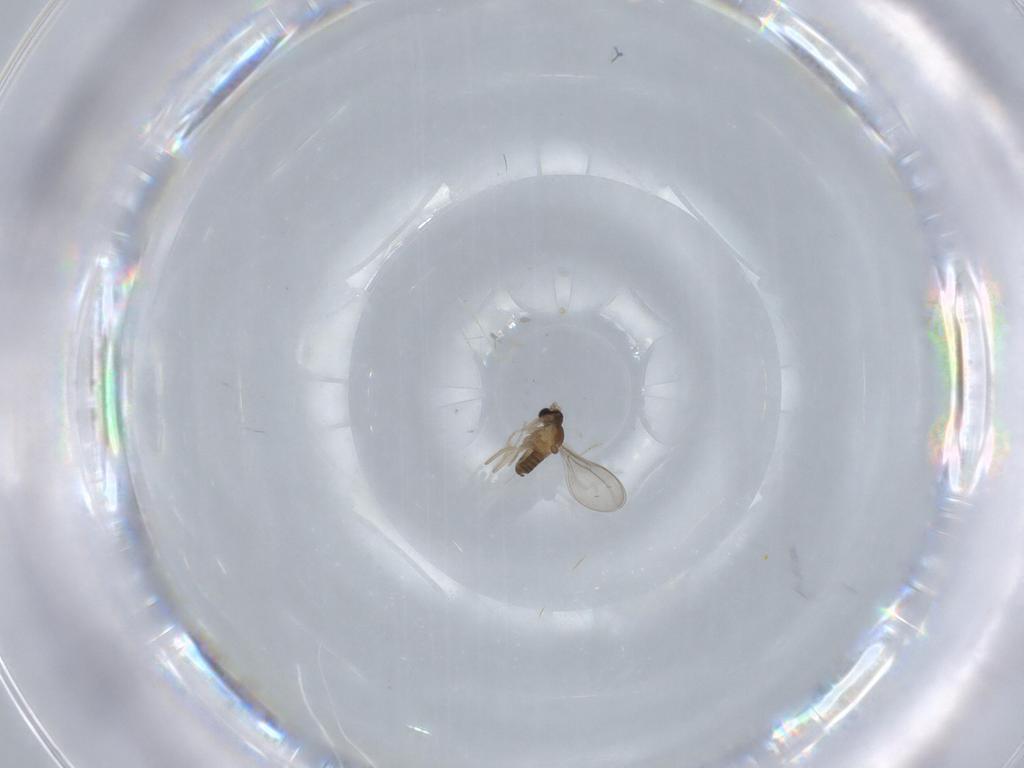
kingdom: Animalia
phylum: Arthropoda
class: Insecta
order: Diptera
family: Cecidomyiidae
